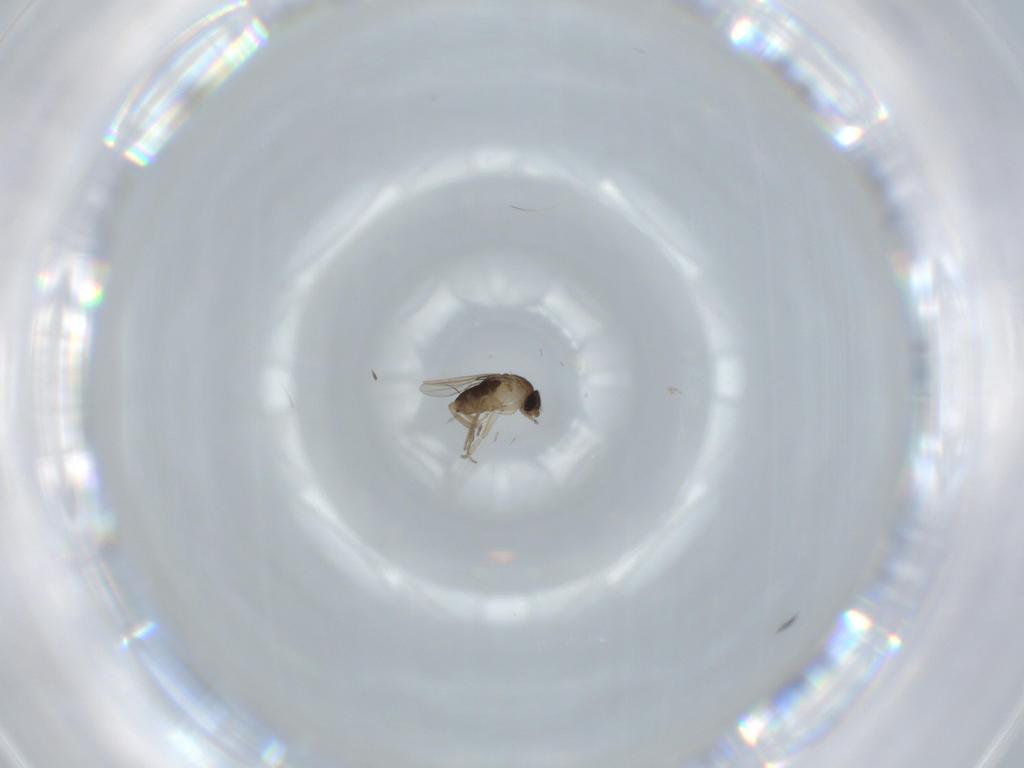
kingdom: Animalia
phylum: Arthropoda
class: Insecta
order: Diptera
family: Phoridae
